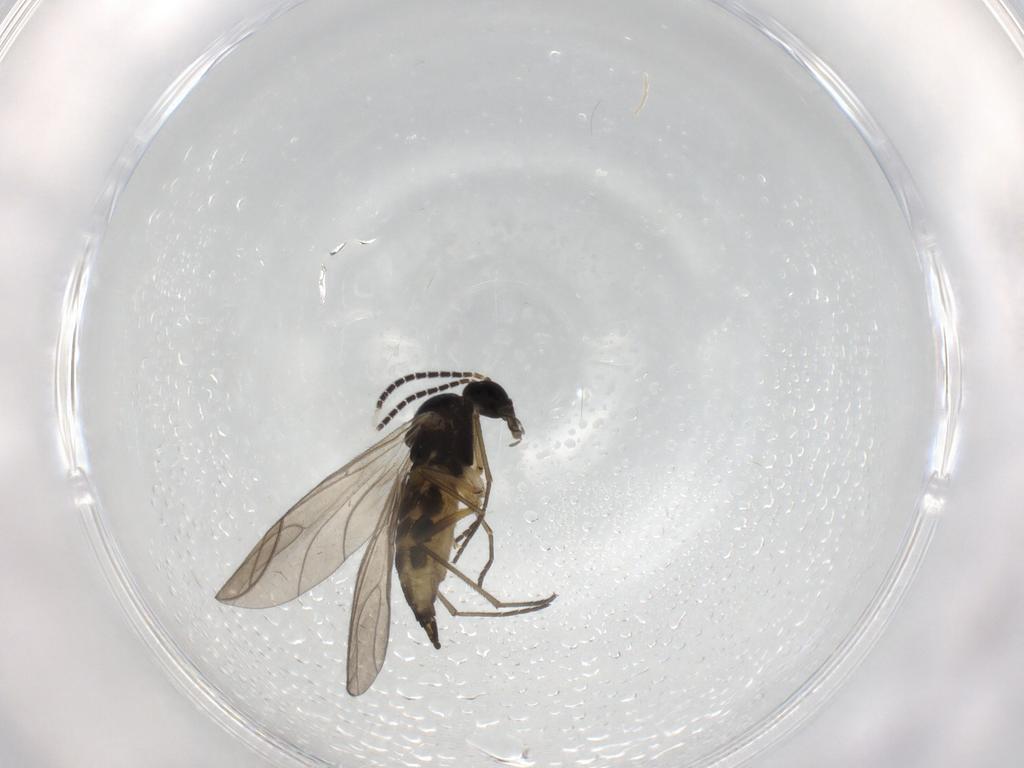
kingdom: Animalia
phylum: Arthropoda
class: Insecta
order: Diptera
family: Chironomidae
